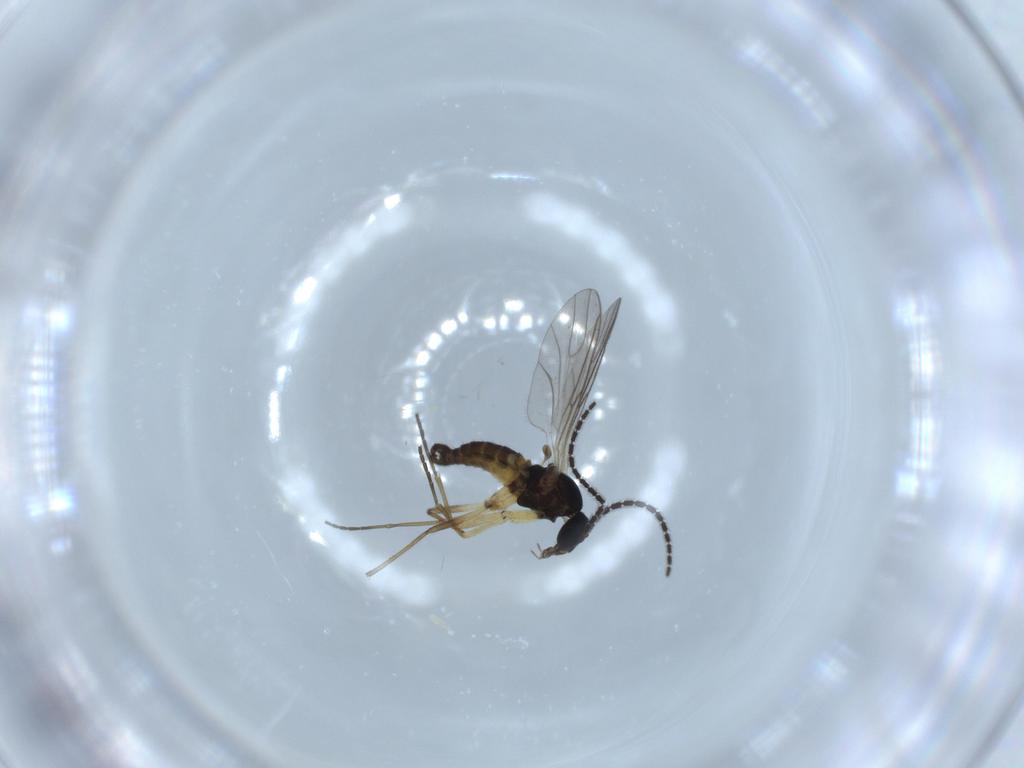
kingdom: Animalia
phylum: Arthropoda
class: Insecta
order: Diptera
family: Sciaridae
